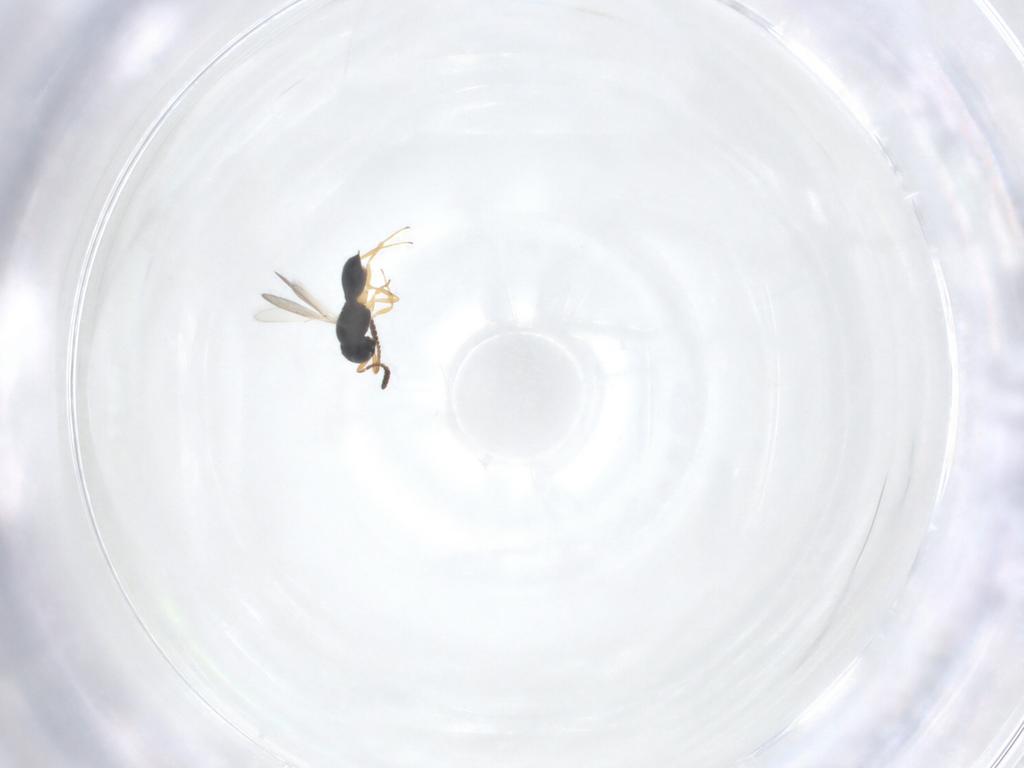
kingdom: Animalia
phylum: Arthropoda
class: Insecta
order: Hymenoptera
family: Scelionidae
